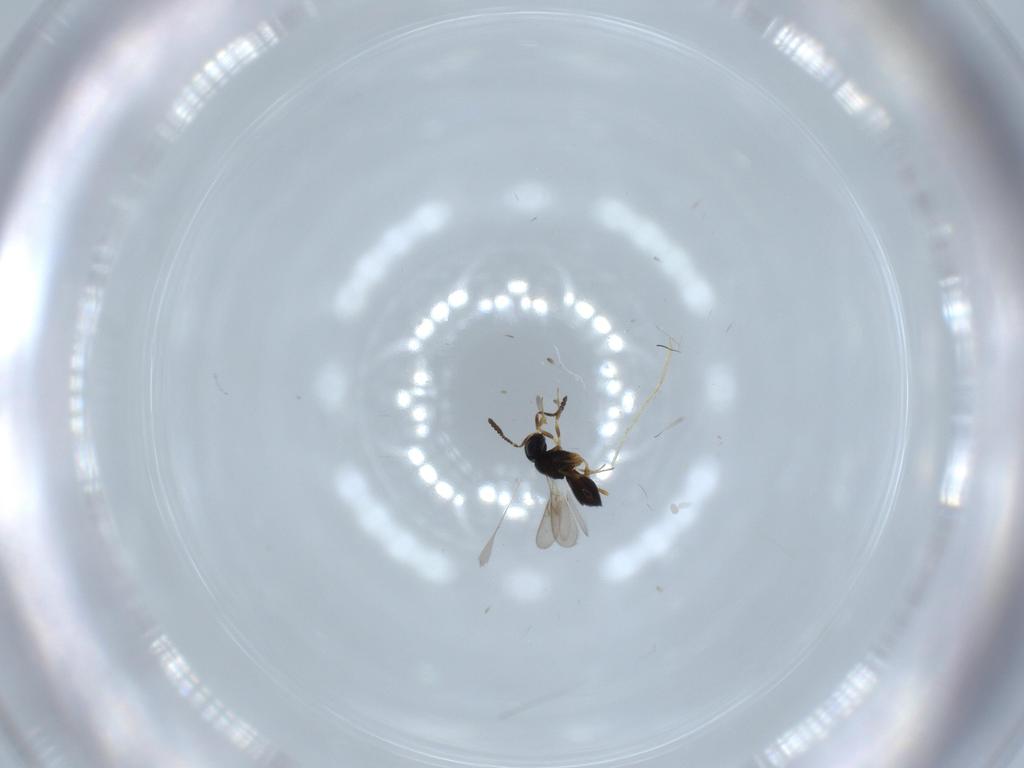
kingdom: Animalia
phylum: Arthropoda
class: Insecta
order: Hymenoptera
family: Scelionidae
